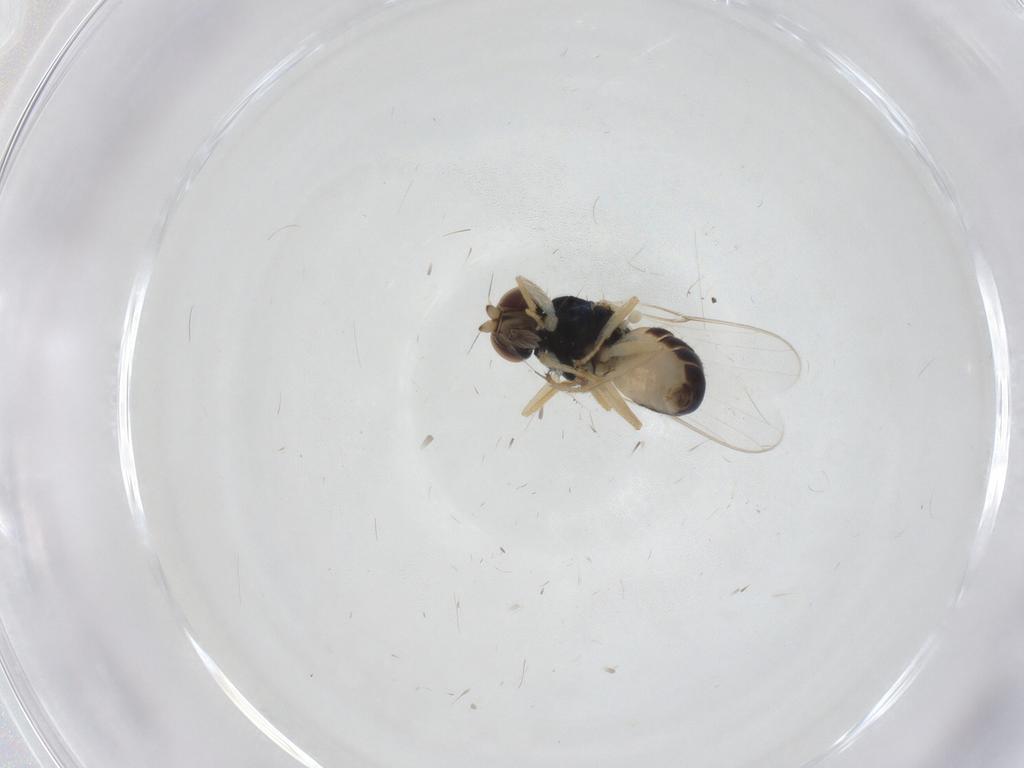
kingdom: Animalia
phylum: Arthropoda
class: Insecta
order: Diptera
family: Chloropidae
